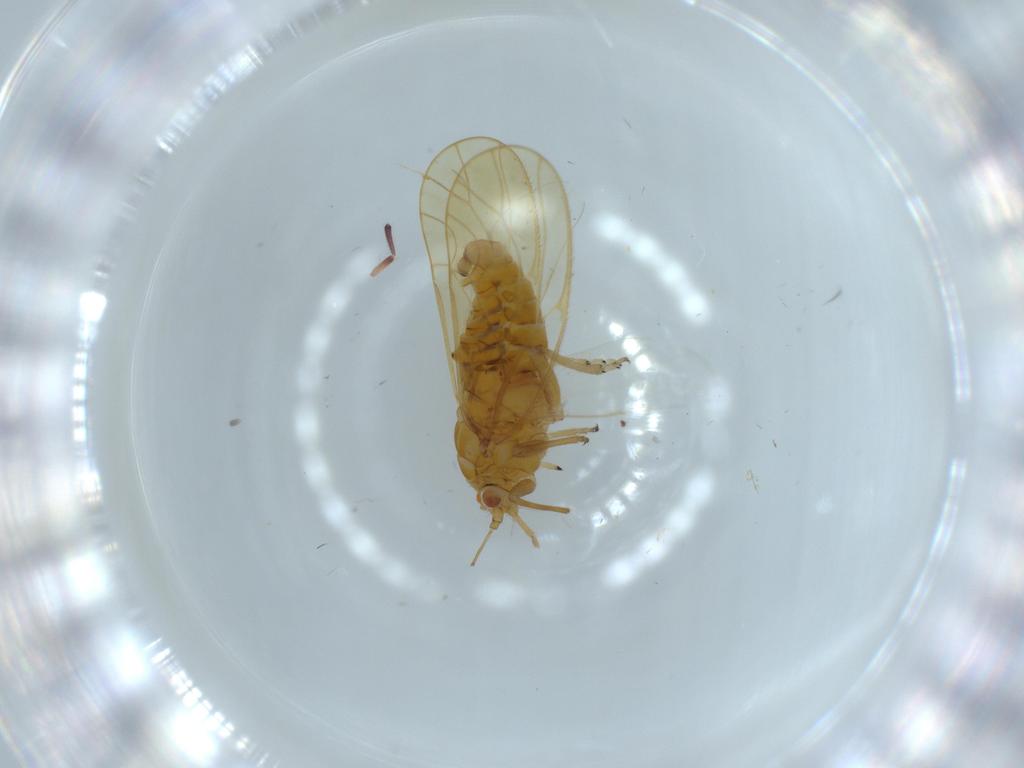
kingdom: Animalia
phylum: Arthropoda
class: Insecta
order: Hemiptera
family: Psyllidae
